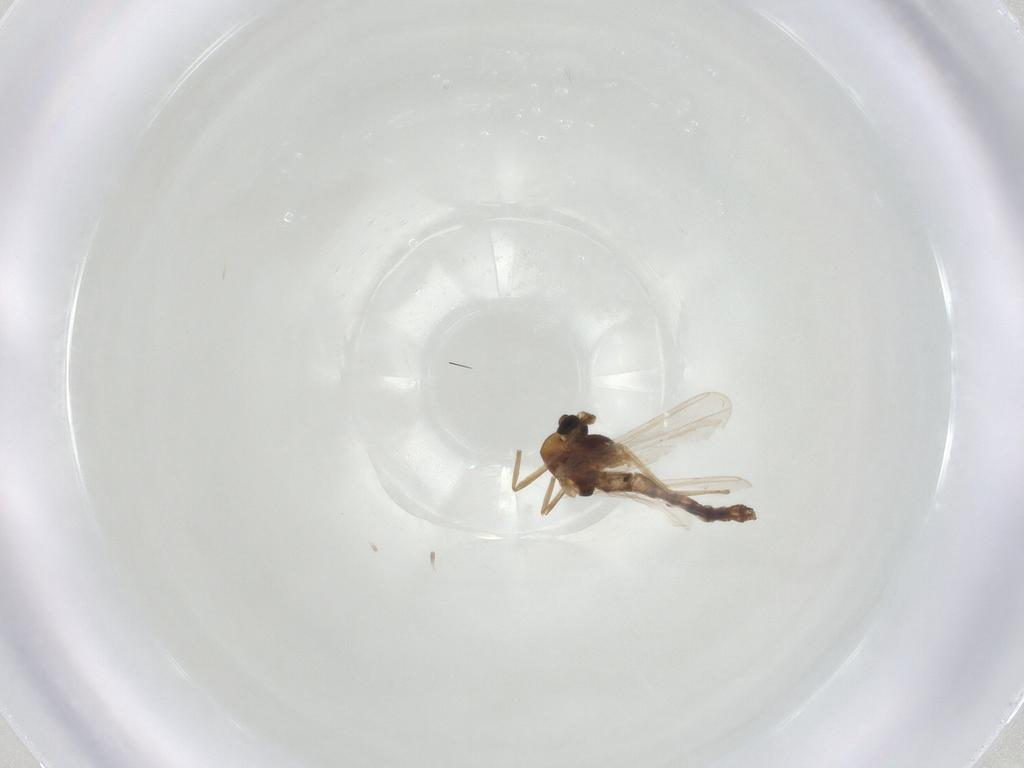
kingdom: Animalia
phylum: Arthropoda
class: Insecta
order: Diptera
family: Chironomidae
